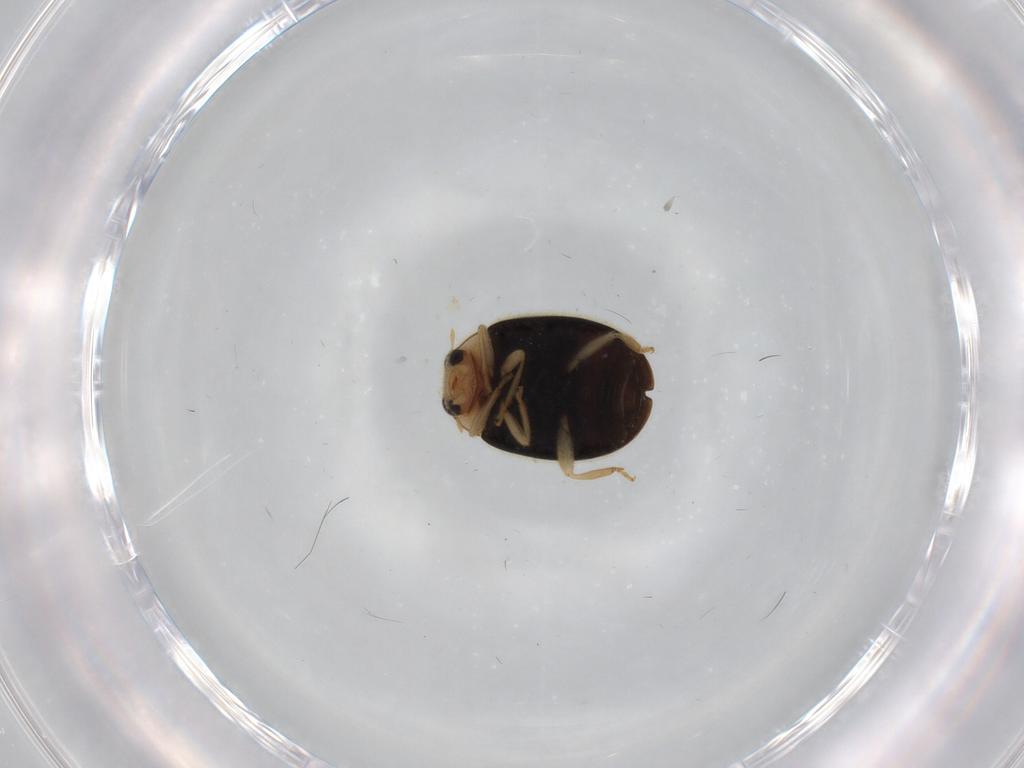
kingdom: Animalia
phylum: Arthropoda
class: Insecta
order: Coleoptera
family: Coccinellidae
